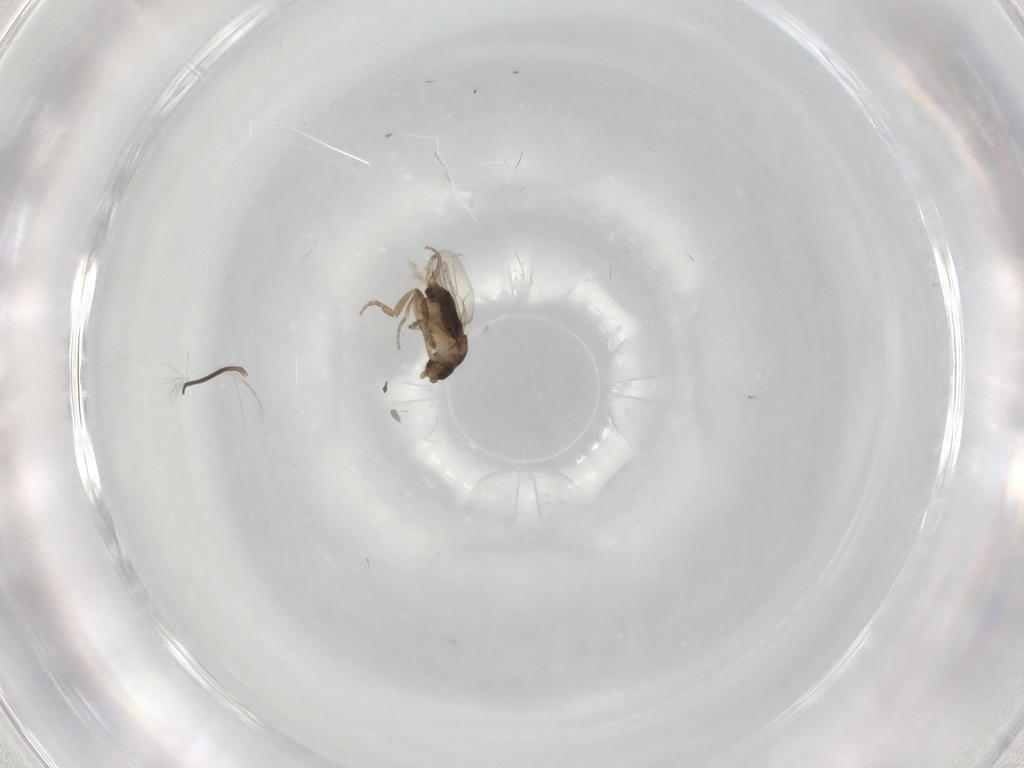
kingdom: Animalia
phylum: Arthropoda
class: Insecta
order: Diptera
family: Phoridae
